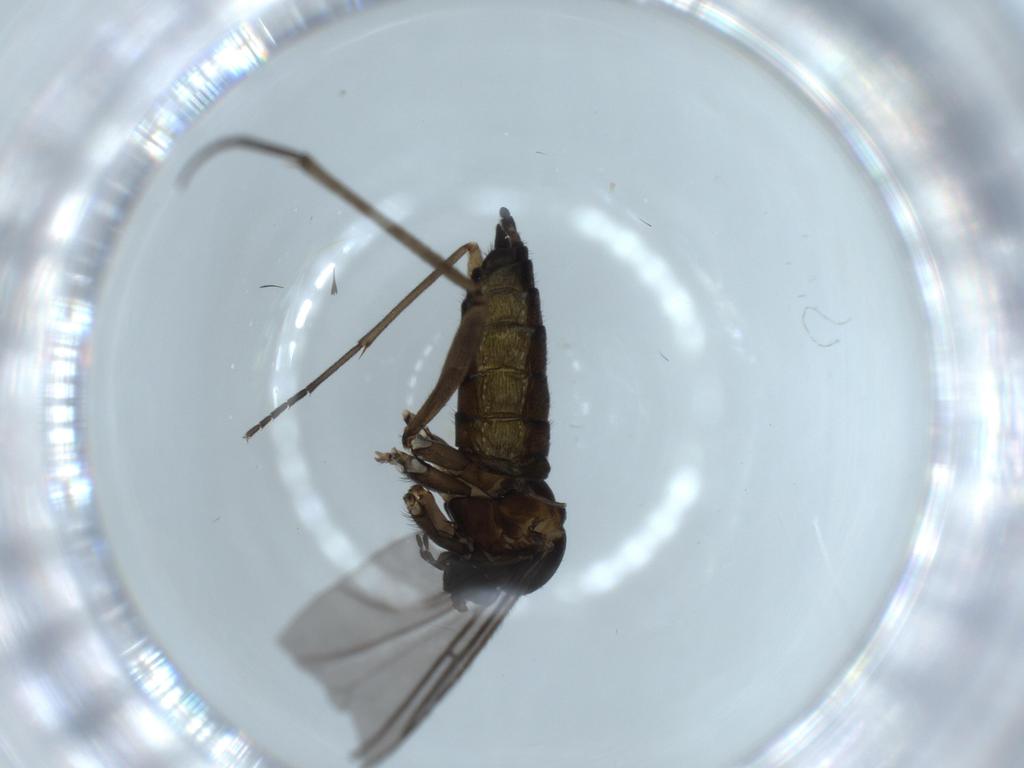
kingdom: Animalia
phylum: Arthropoda
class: Insecta
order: Diptera
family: Sciaridae
